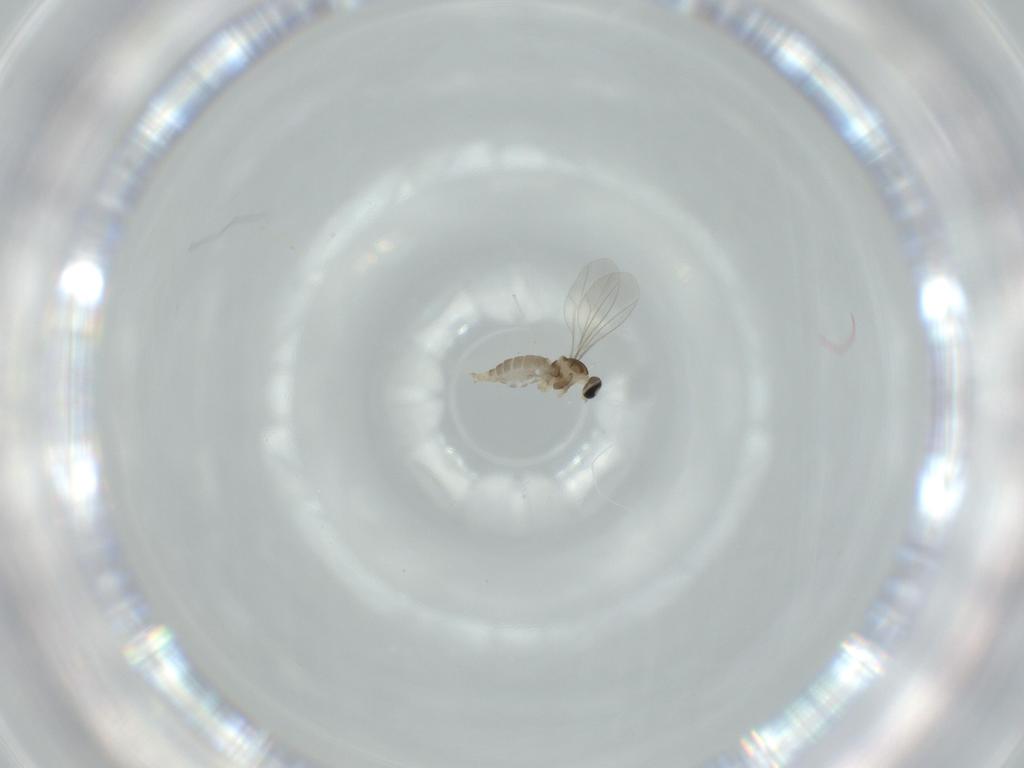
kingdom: Animalia
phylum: Arthropoda
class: Insecta
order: Diptera
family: Cecidomyiidae
